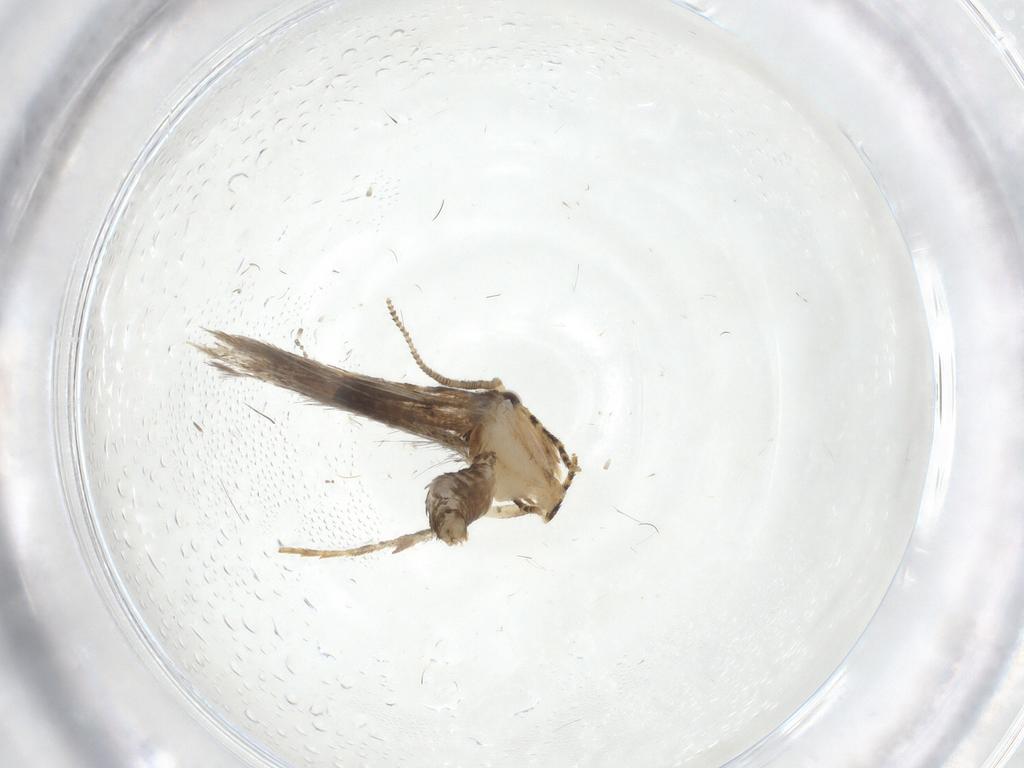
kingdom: Animalia
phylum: Arthropoda
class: Insecta
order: Lepidoptera
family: Tineidae
